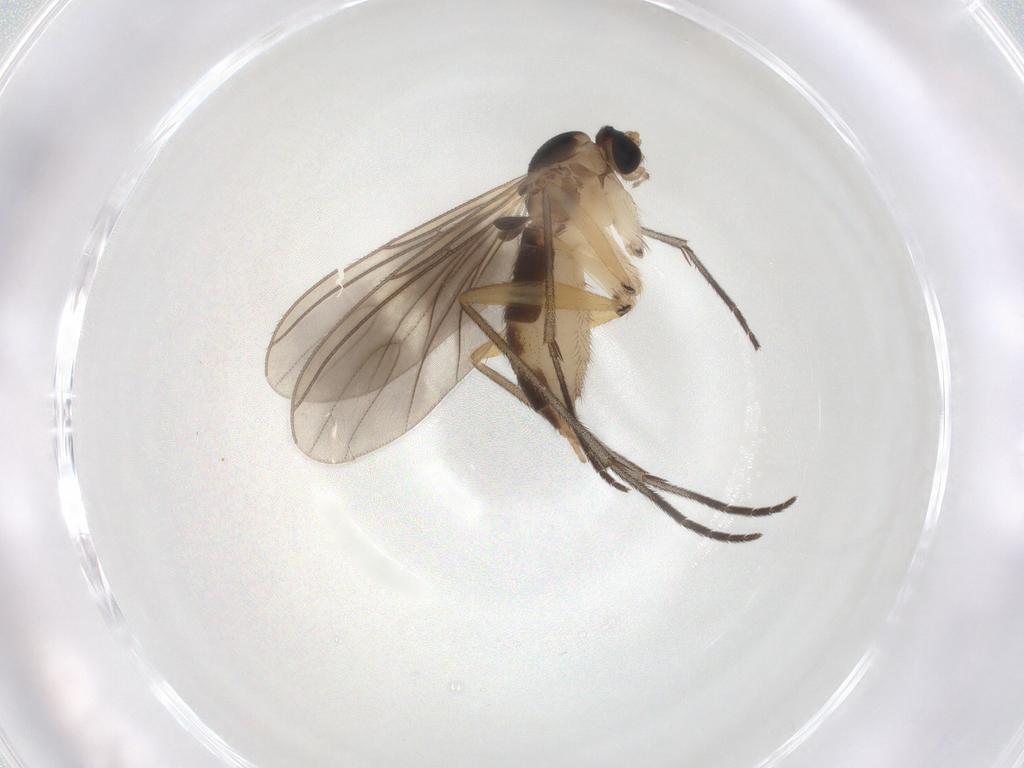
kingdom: Animalia
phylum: Arthropoda
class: Insecta
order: Diptera
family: Sciaridae
